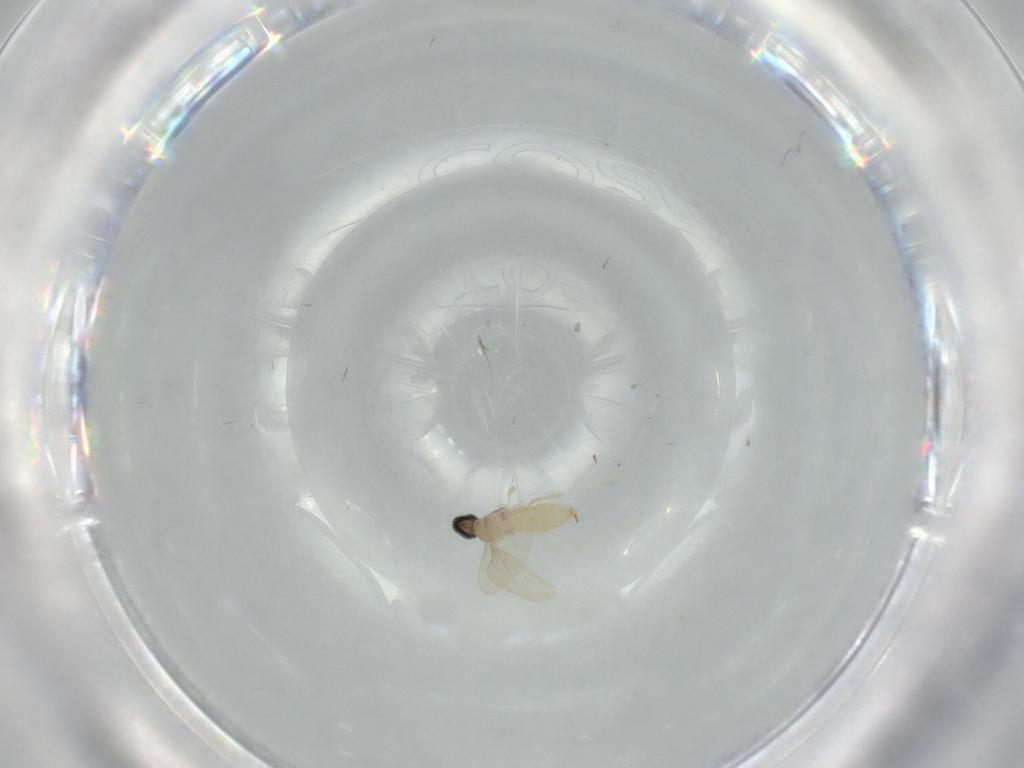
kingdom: Animalia
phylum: Arthropoda
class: Insecta
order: Diptera
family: Cecidomyiidae
